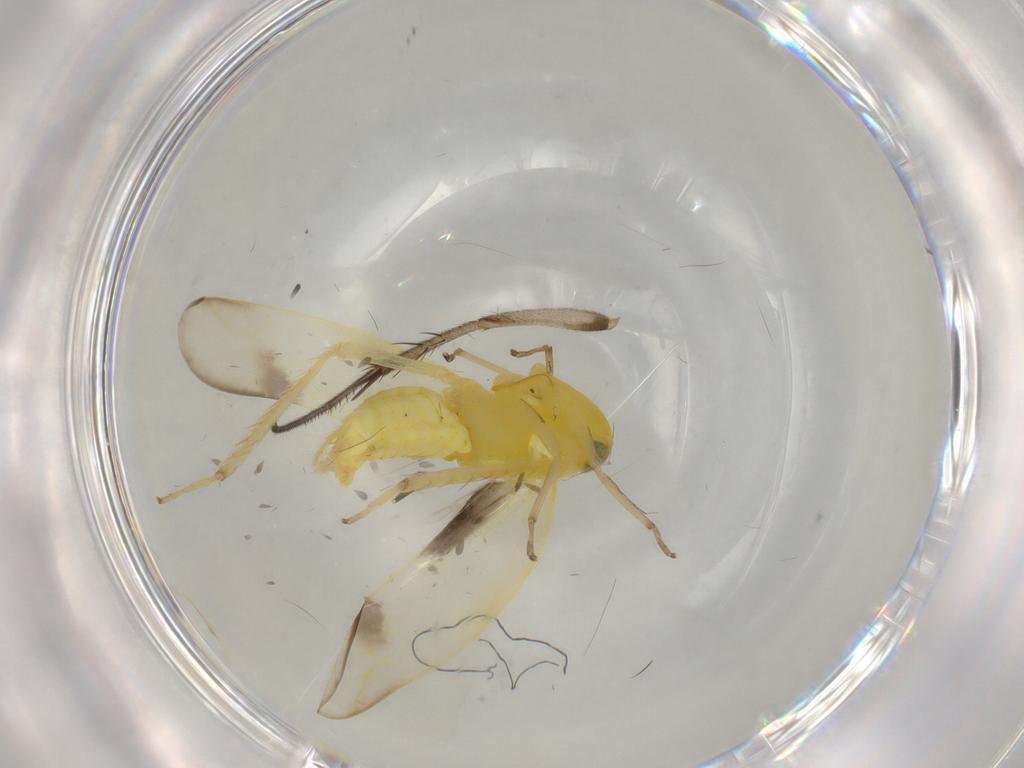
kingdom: Animalia
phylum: Arthropoda
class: Insecta
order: Hemiptera
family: Cicadellidae
